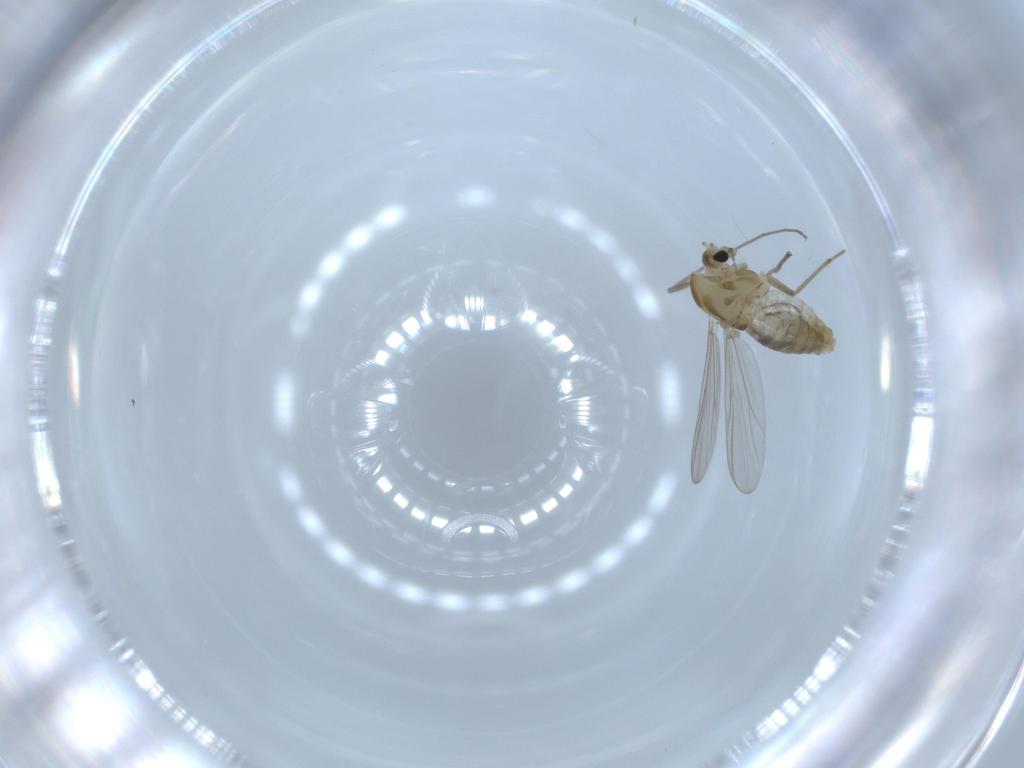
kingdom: Animalia
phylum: Arthropoda
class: Insecta
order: Diptera
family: Chironomidae
